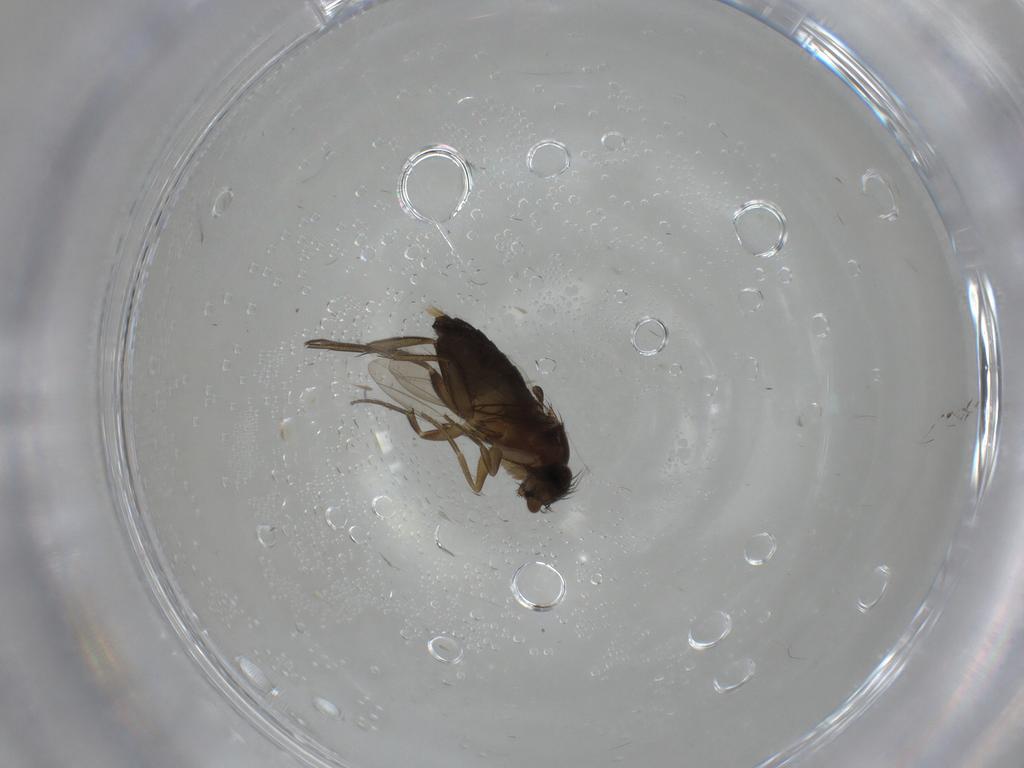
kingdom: Animalia
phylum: Arthropoda
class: Insecta
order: Diptera
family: Phoridae
